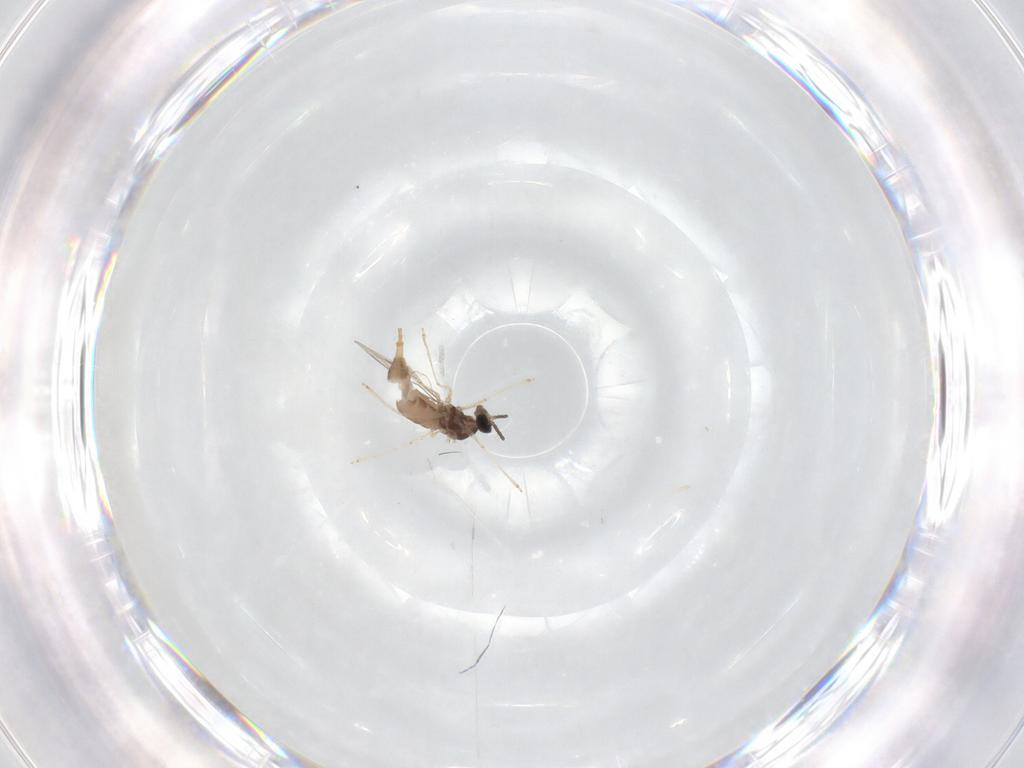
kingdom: Animalia
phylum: Arthropoda
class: Insecta
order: Diptera
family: Cecidomyiidae
